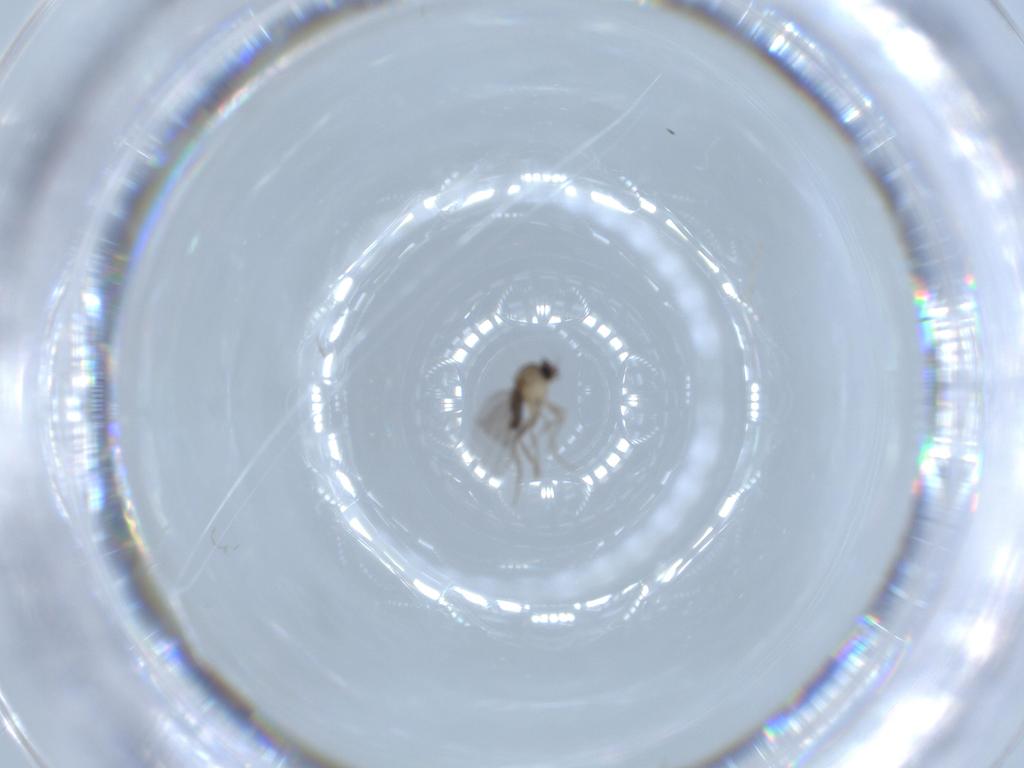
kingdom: Animalia
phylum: Arthropoda
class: Insecta
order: Diptera
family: Phoridae
